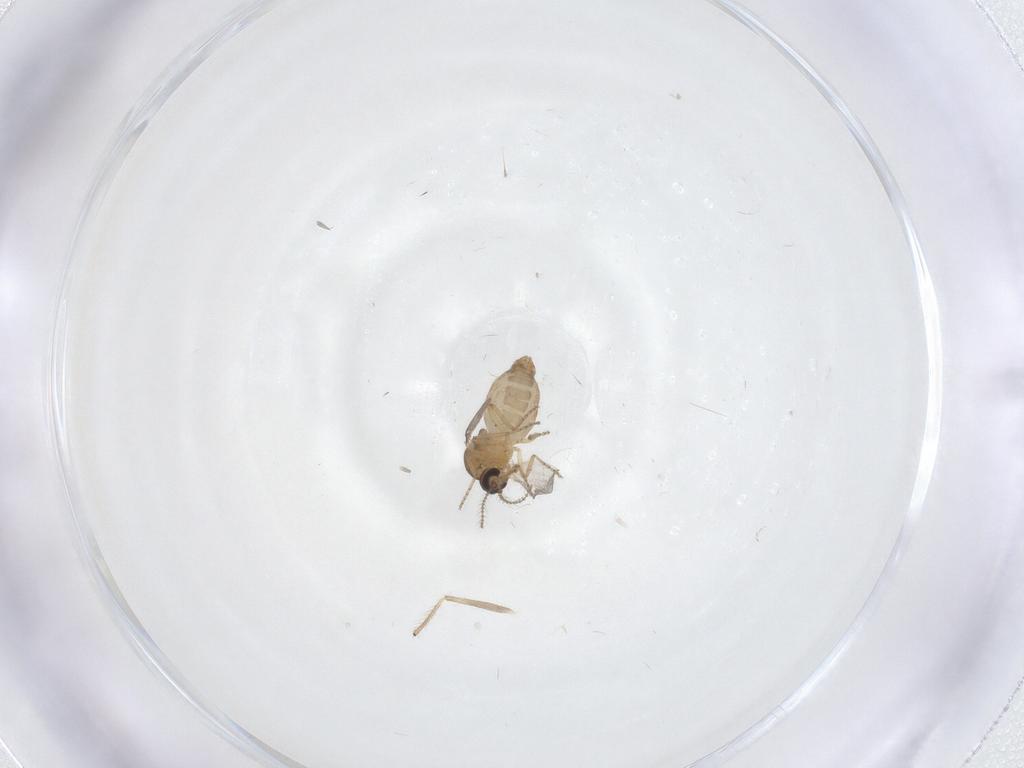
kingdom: Animalia
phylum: Arthropoda
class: Insecta
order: Diptera
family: Ceratopogonidae
